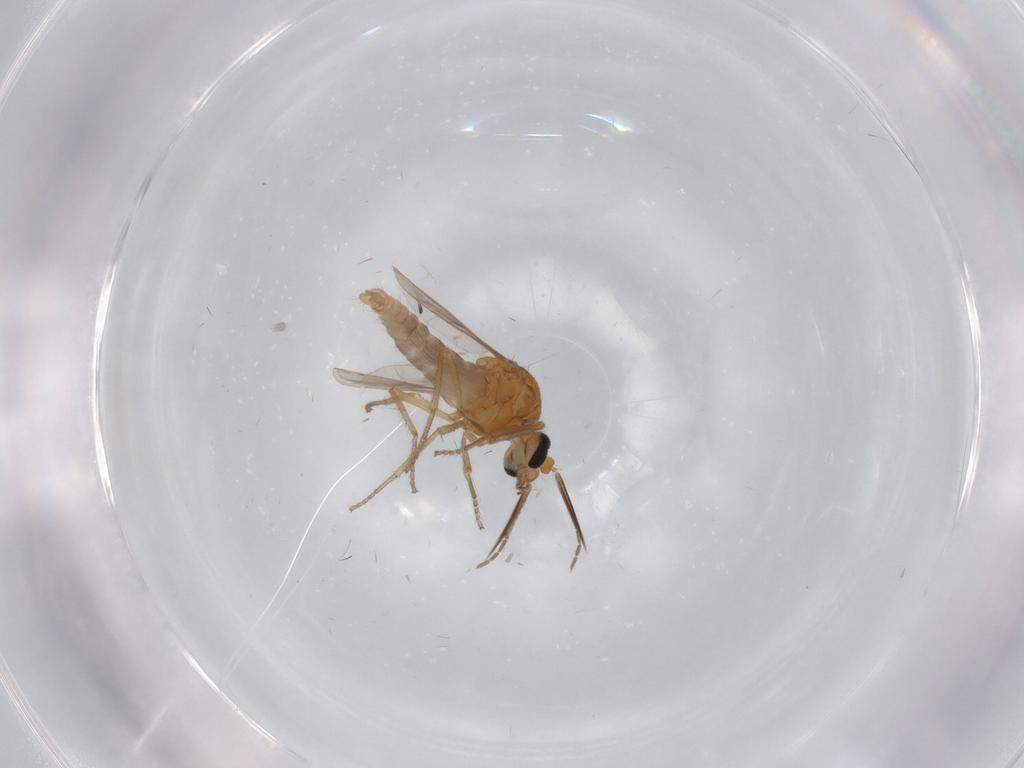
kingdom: Animalia
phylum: Arthropoda
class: Insecta
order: Diptera
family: Ceratopogonidae
